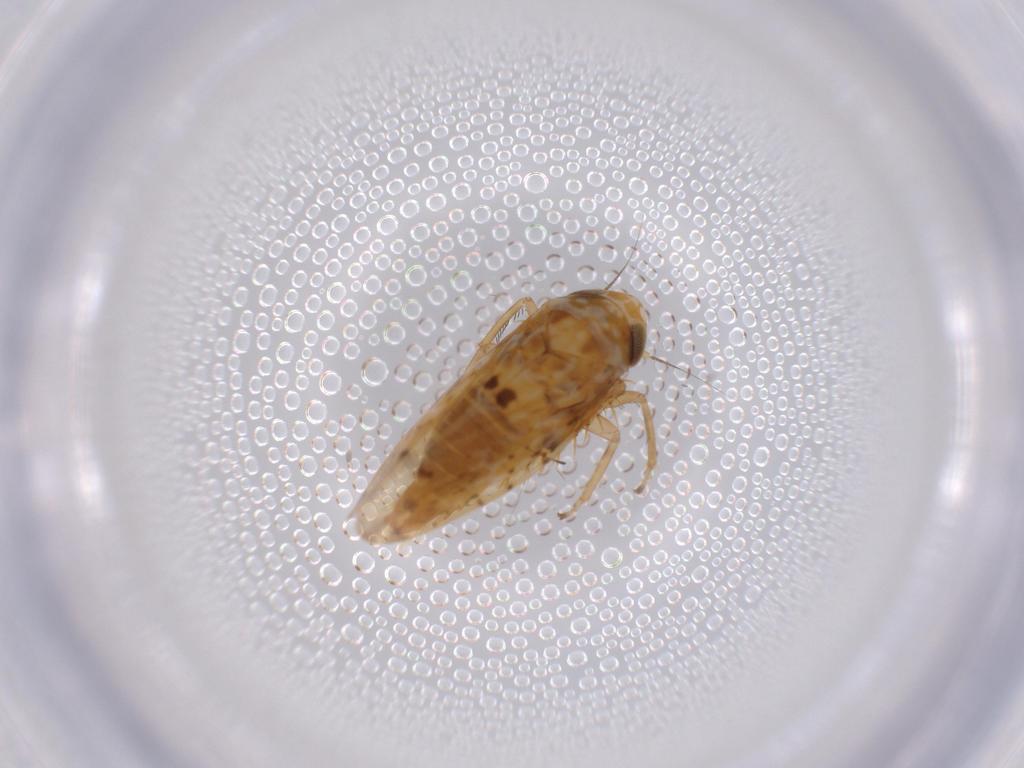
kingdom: Animalia
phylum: Arthropoda
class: Insecta
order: Hemiptera
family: Cicadellidae
